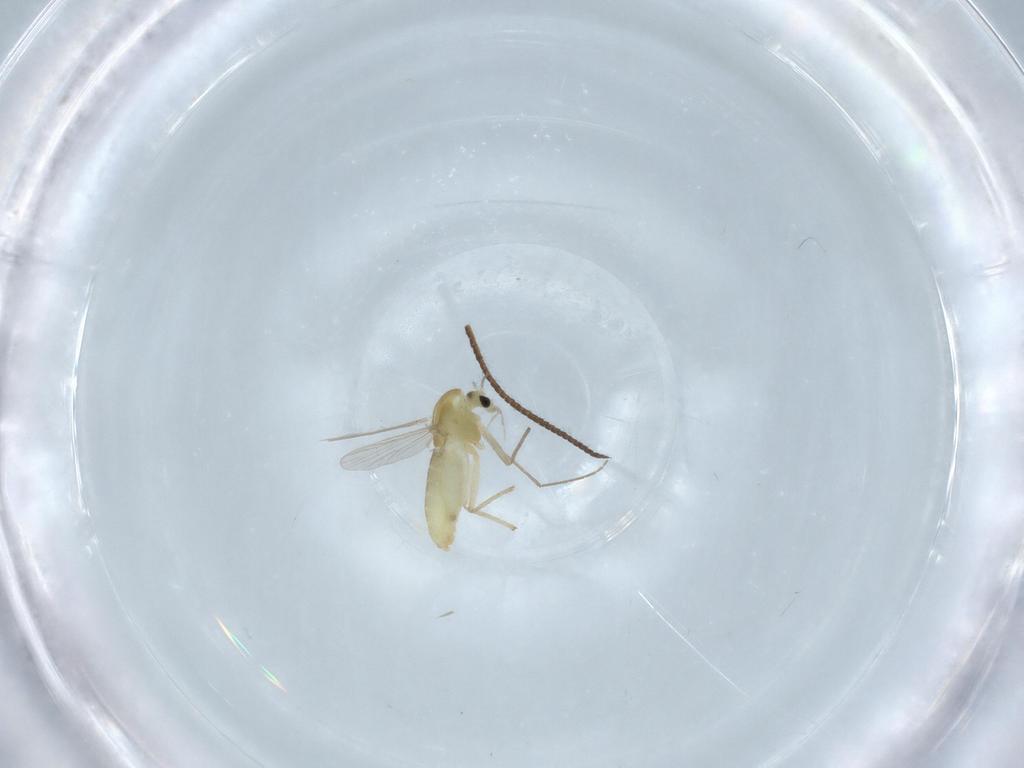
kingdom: Animalia
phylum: Arthropoda
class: Insecta
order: Diptera
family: Chironomidae
